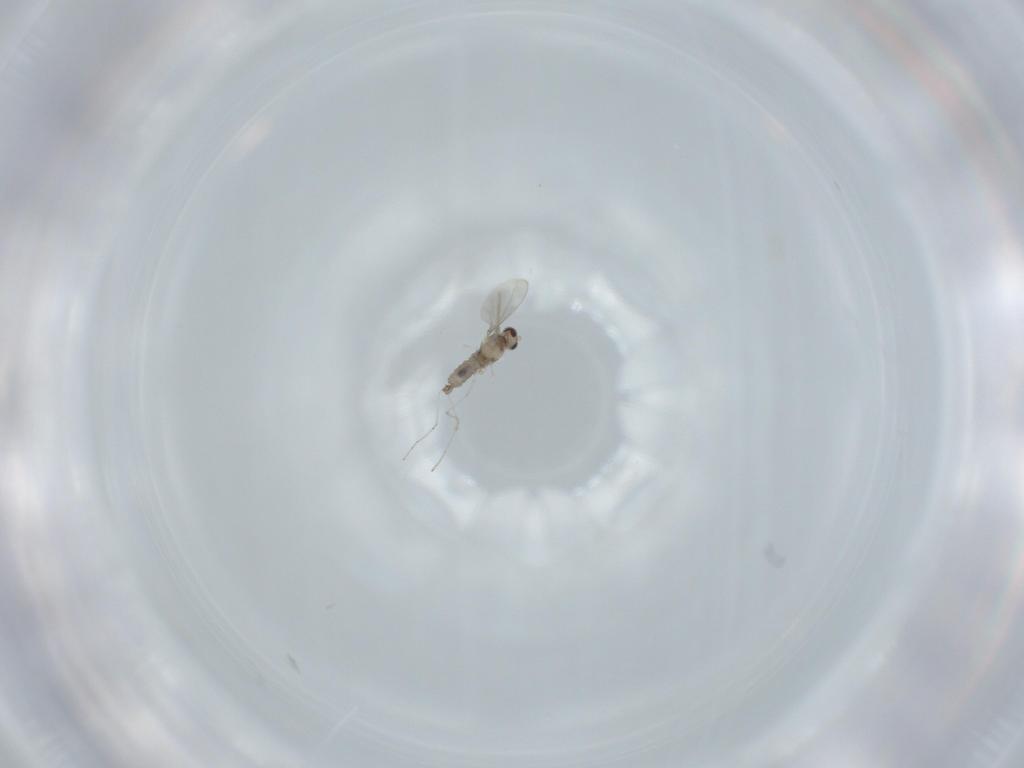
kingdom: Animalia
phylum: Arthropoda
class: Insecta
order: Diptera
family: Cecidomyiidae
